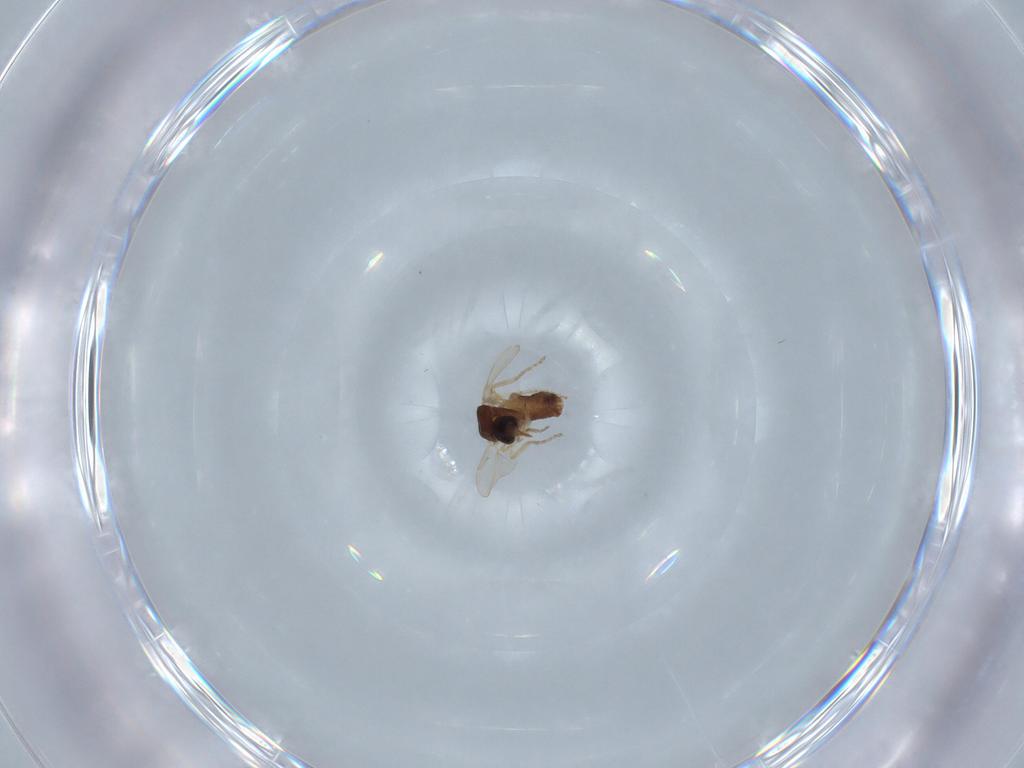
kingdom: Animalia
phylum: Arthropoda
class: Insecta
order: Diptera
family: Ceratopogonidae
